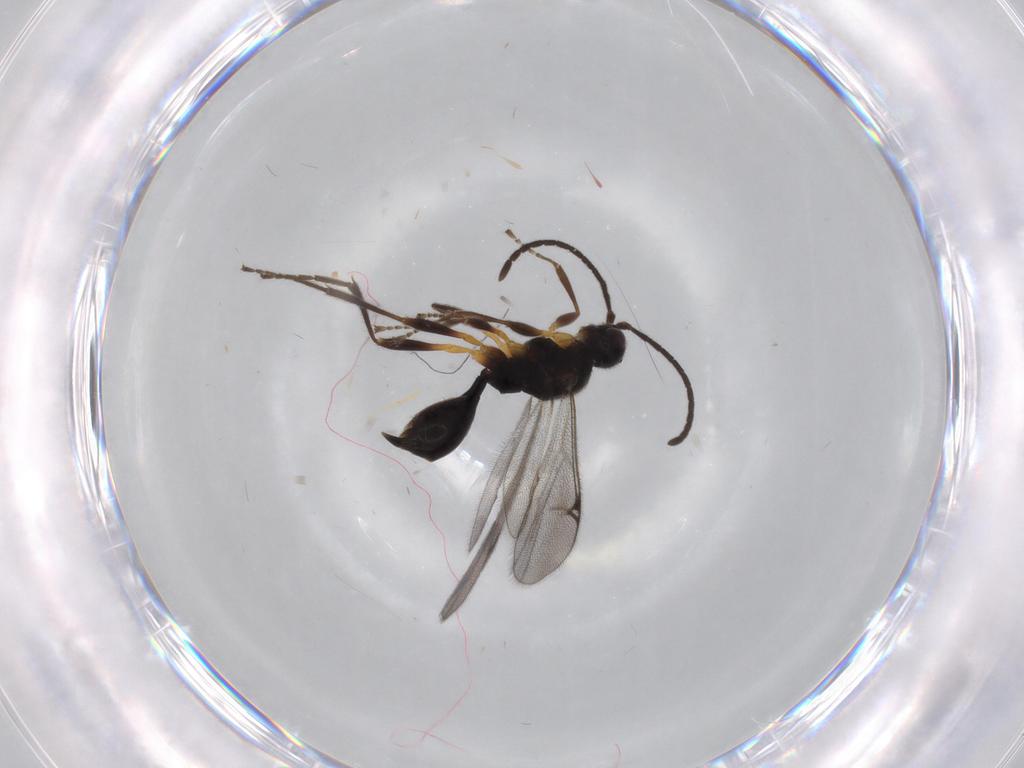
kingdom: Animalia
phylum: Arthropoda
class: Insecta
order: Hymenoptera
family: Proctotrupidae
